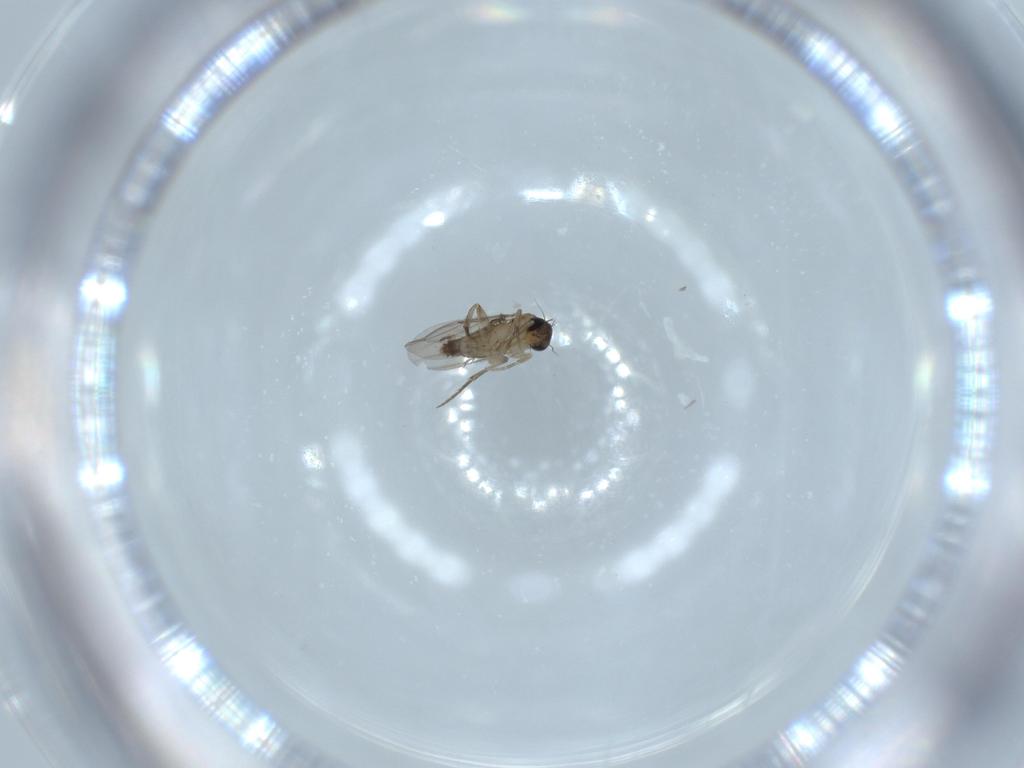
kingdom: Animalia
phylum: Arthropoda
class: Insecta
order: Diptera
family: Phoridae
